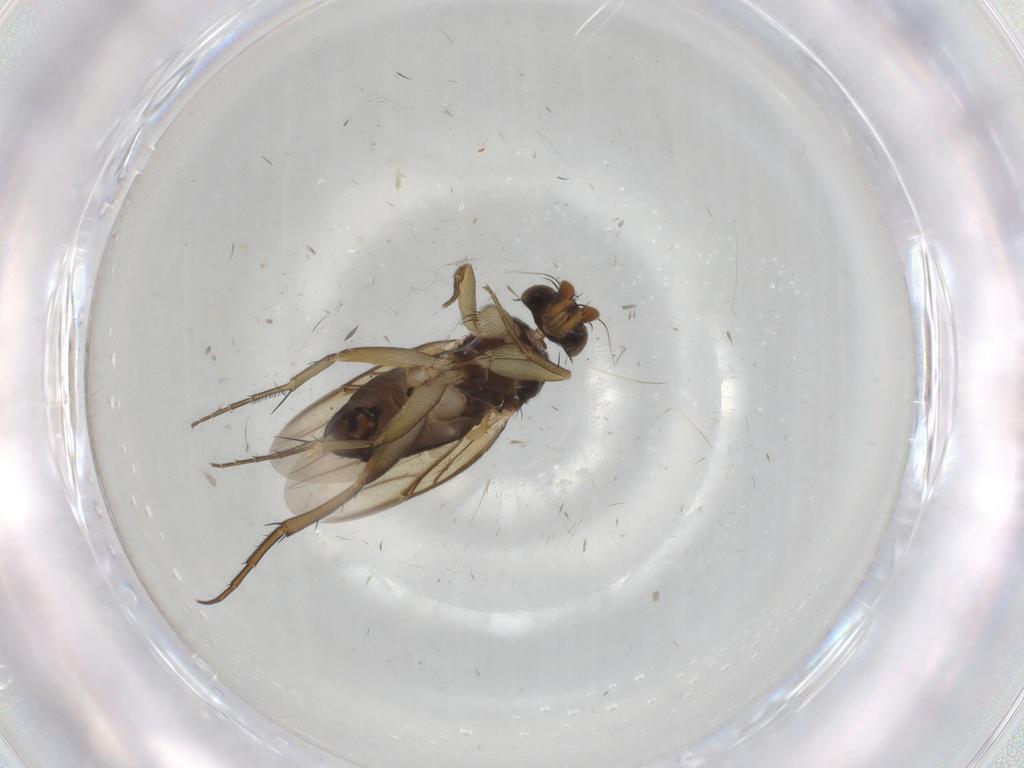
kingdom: Animalia
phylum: Arthropoda
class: Insecta
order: Diptera
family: Phoridae
